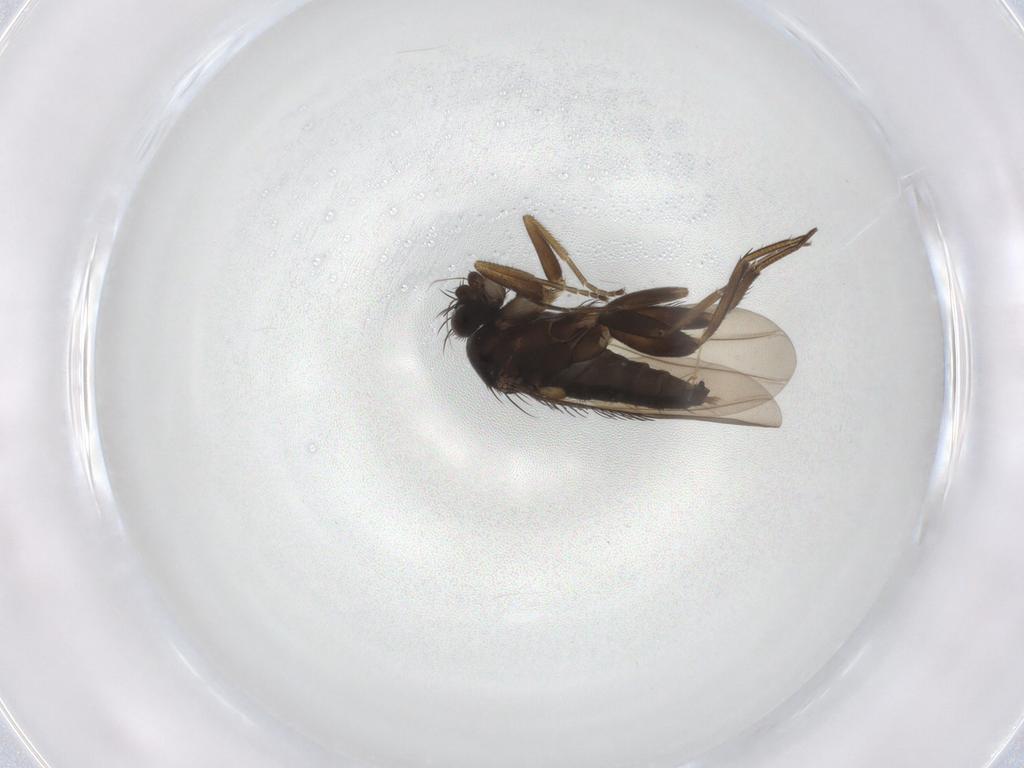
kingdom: Animalia
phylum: Arthropoda
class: Insecta
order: Diptera
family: Phoridae
